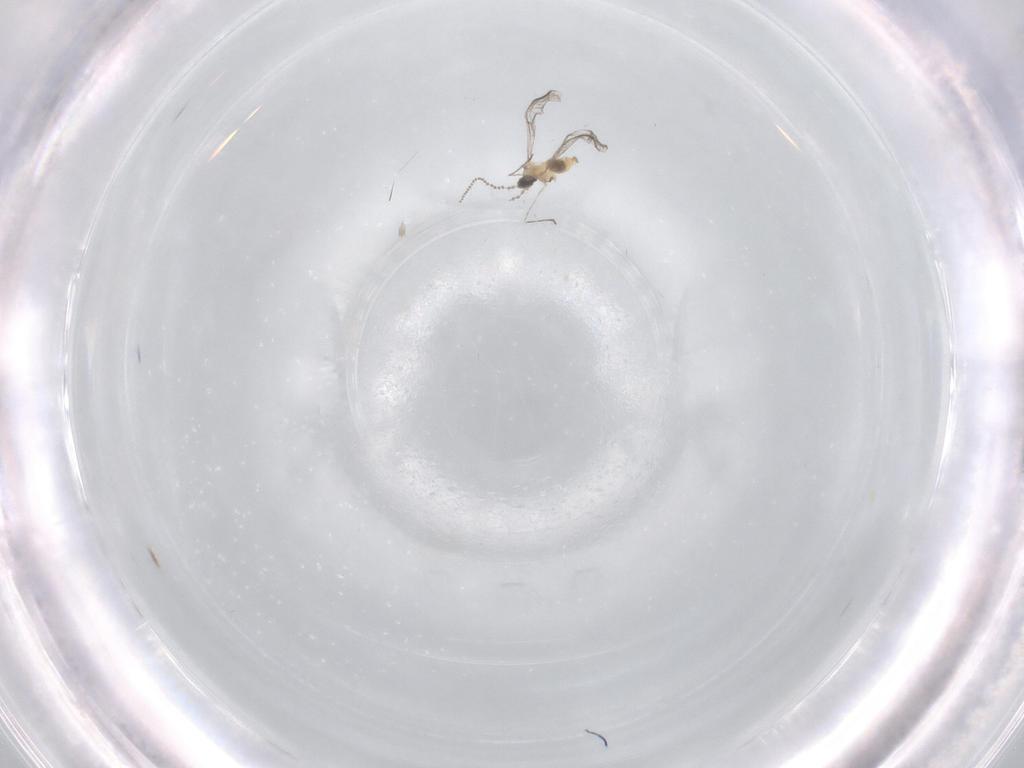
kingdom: Animalia
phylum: Arthropoda
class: Insecta
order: Diptera
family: Cecidomyiidae
